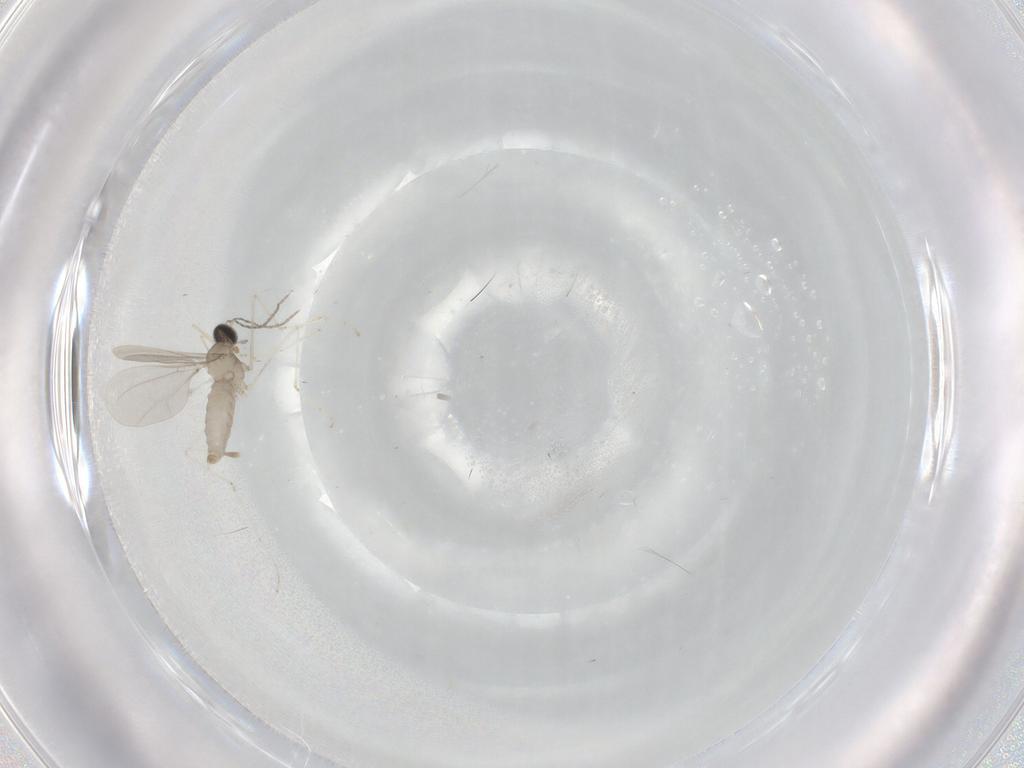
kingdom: Animalia
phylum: Arthropoda
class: Insecta
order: Diptera
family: Cecidomyiidae
